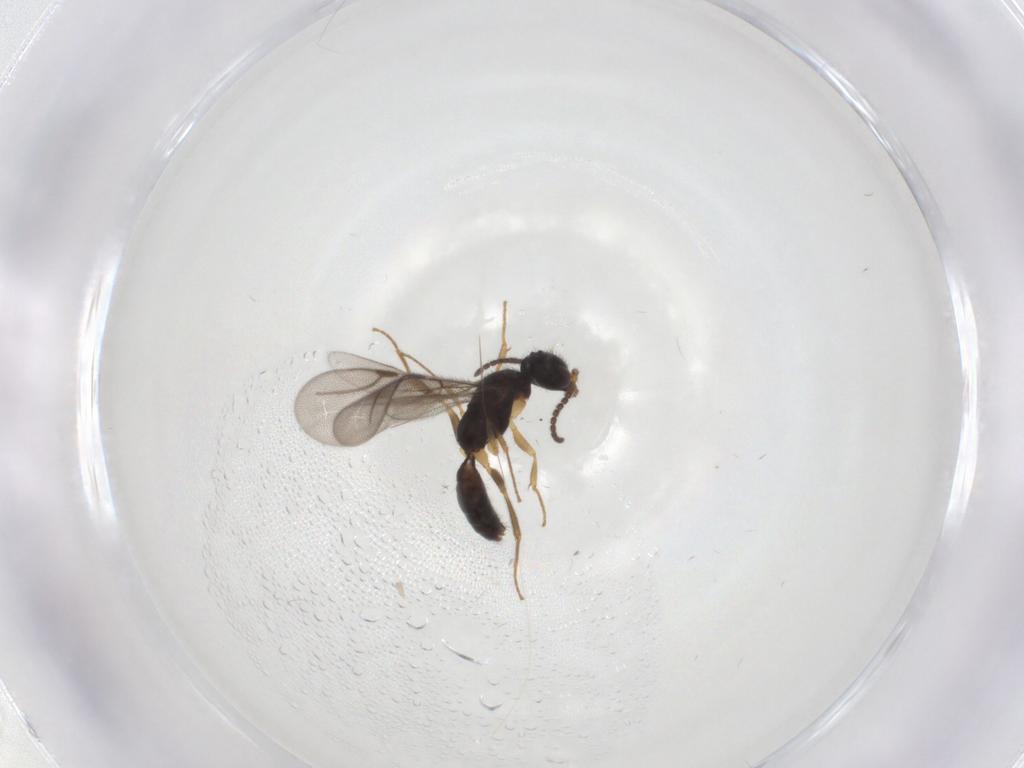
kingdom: Animalia
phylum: Arthropoda
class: Insecta
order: Hymenoptera
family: Bethylidae
